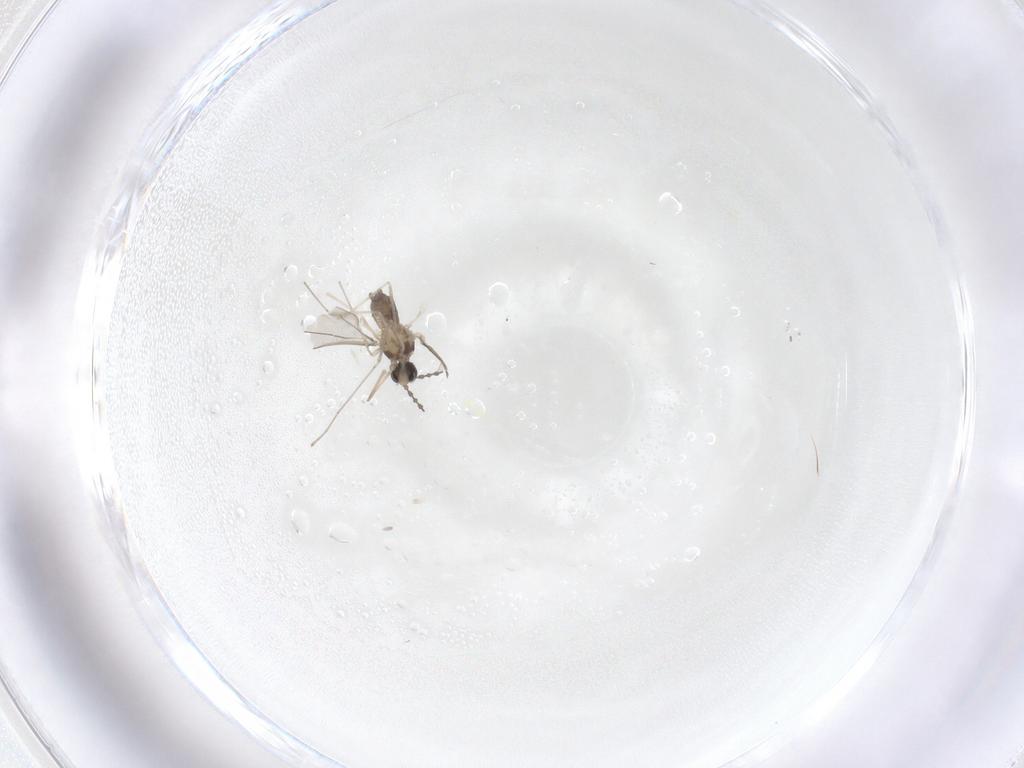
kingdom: Animalia
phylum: Arthropoda
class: Insecta
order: Diptera
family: Cecidomyiidae
